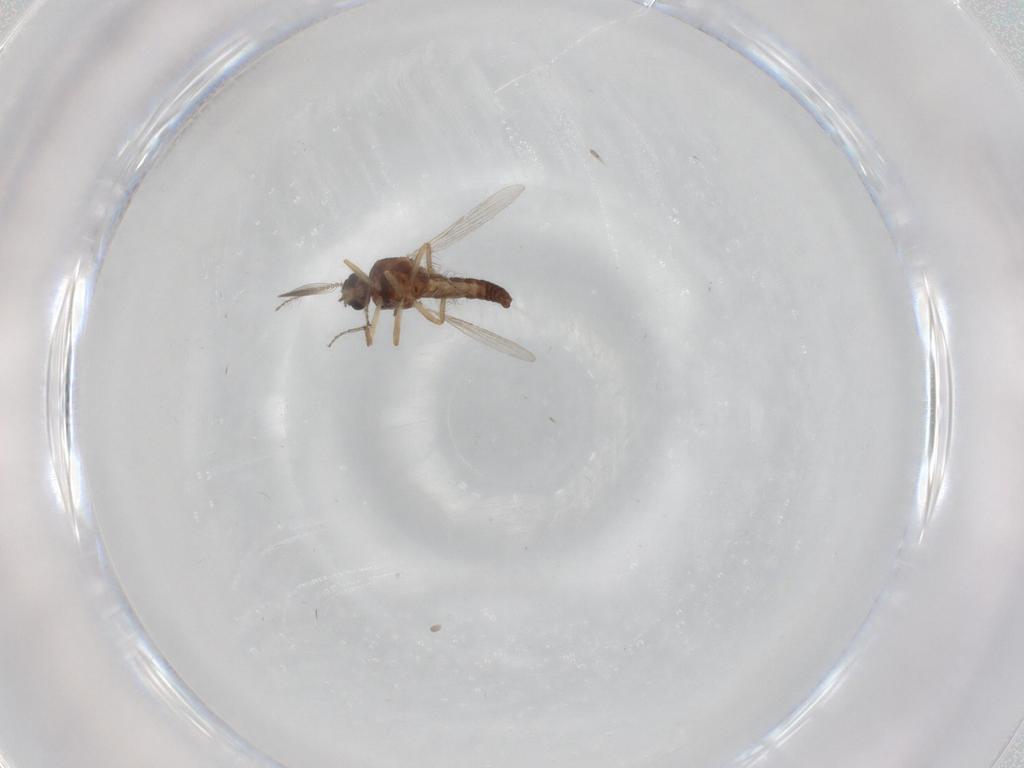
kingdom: Animalia
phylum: Arthropoda
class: Insecta
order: Diptera
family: Ceratopogonidae
